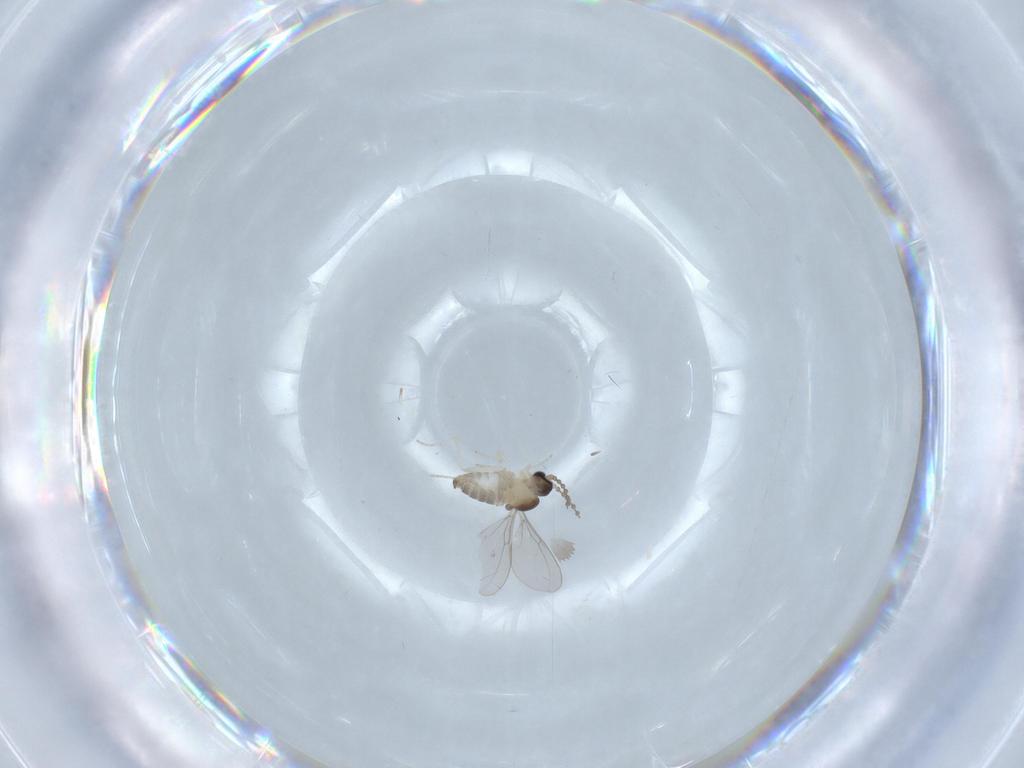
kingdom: Animalia
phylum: Arthropoda
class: Insecta
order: Diptera
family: Cecidomyiidae
